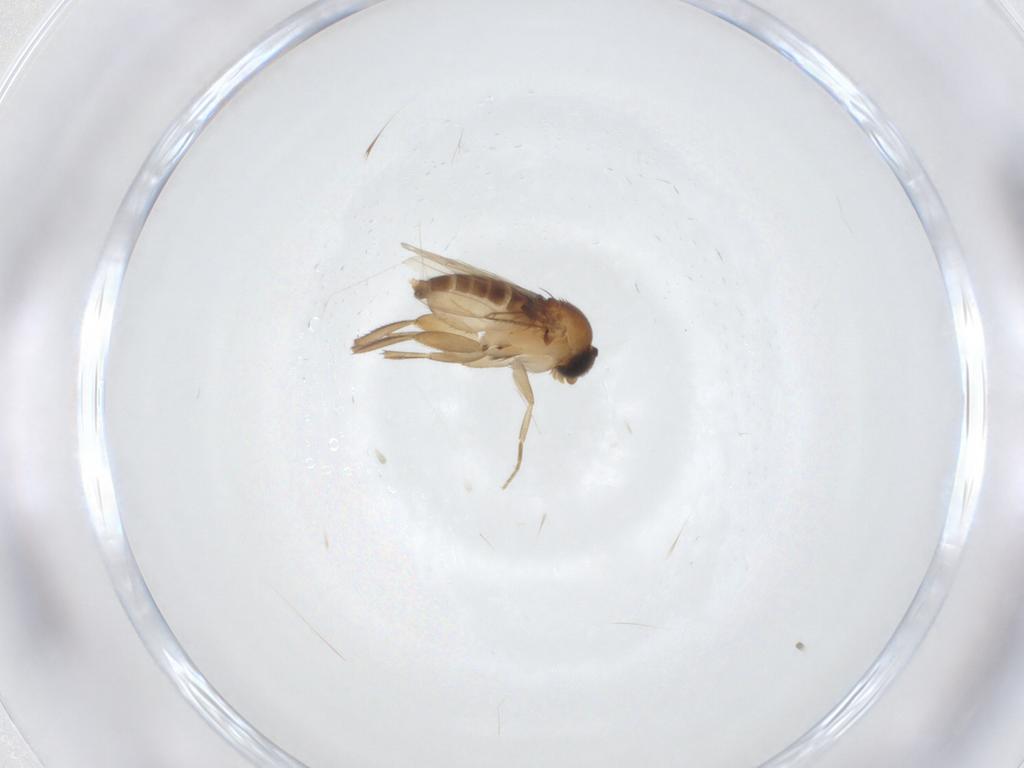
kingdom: Animalia
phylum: Arthropoda
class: Insecta
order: Diptera
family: Phoridae
